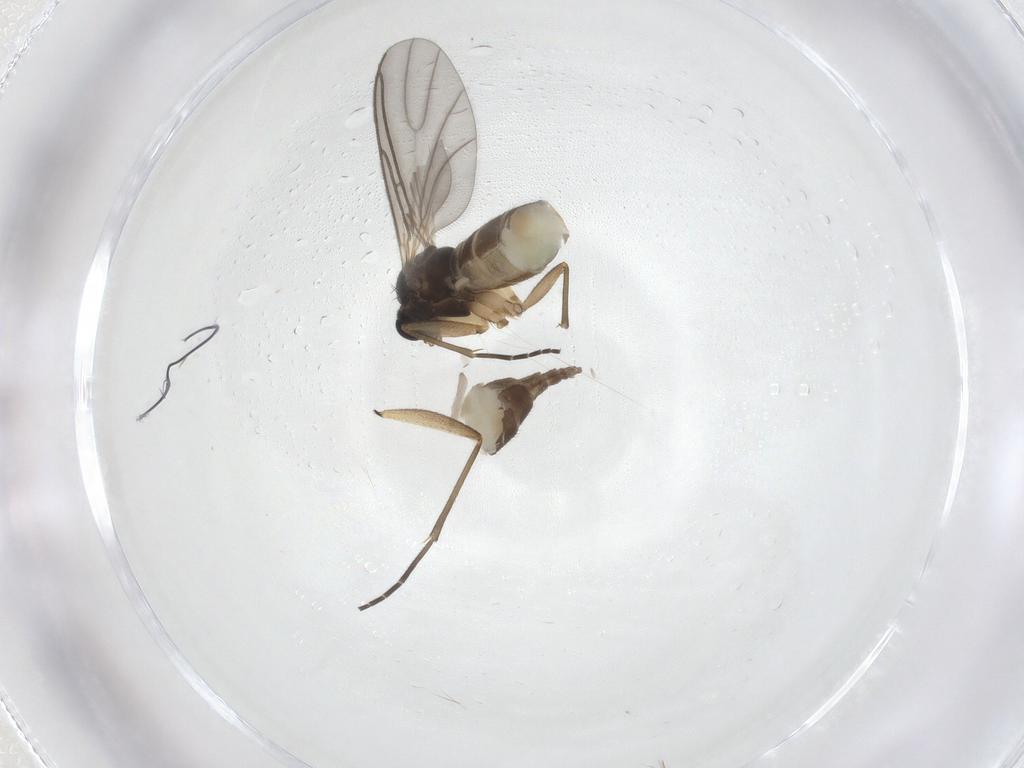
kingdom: Animalia
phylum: Arthropoda
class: Insecta
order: Diptera
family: Sciaridae
